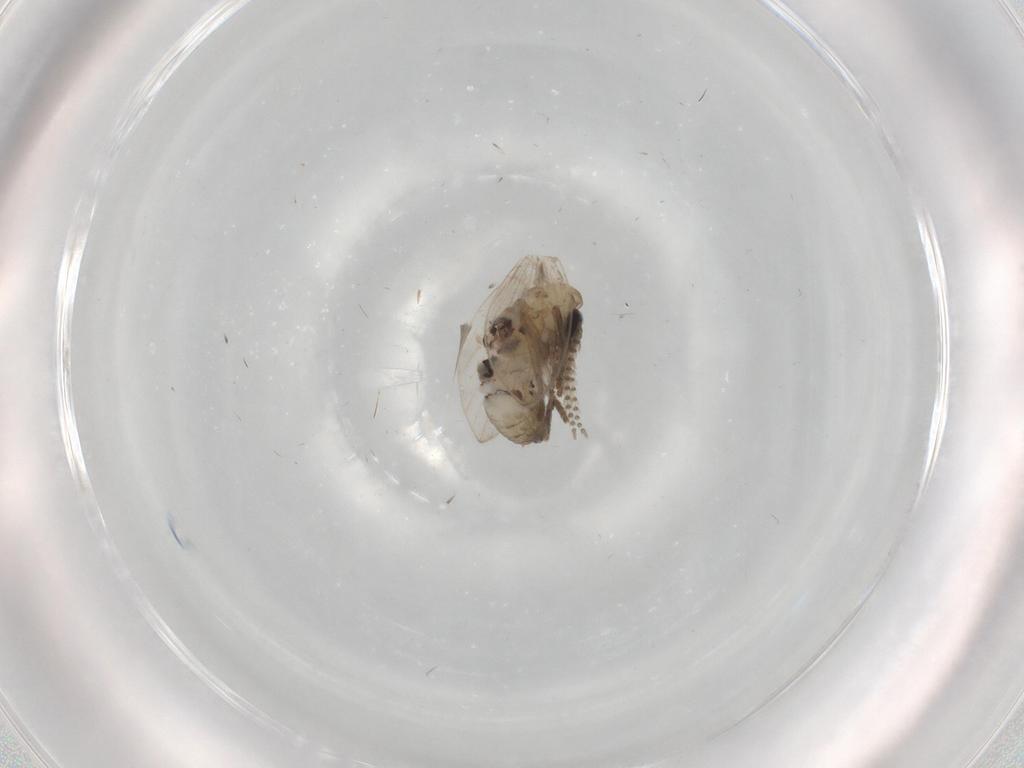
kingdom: Animalia
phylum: Arthropoda
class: Insecta
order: Diptera
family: Psychodidae
